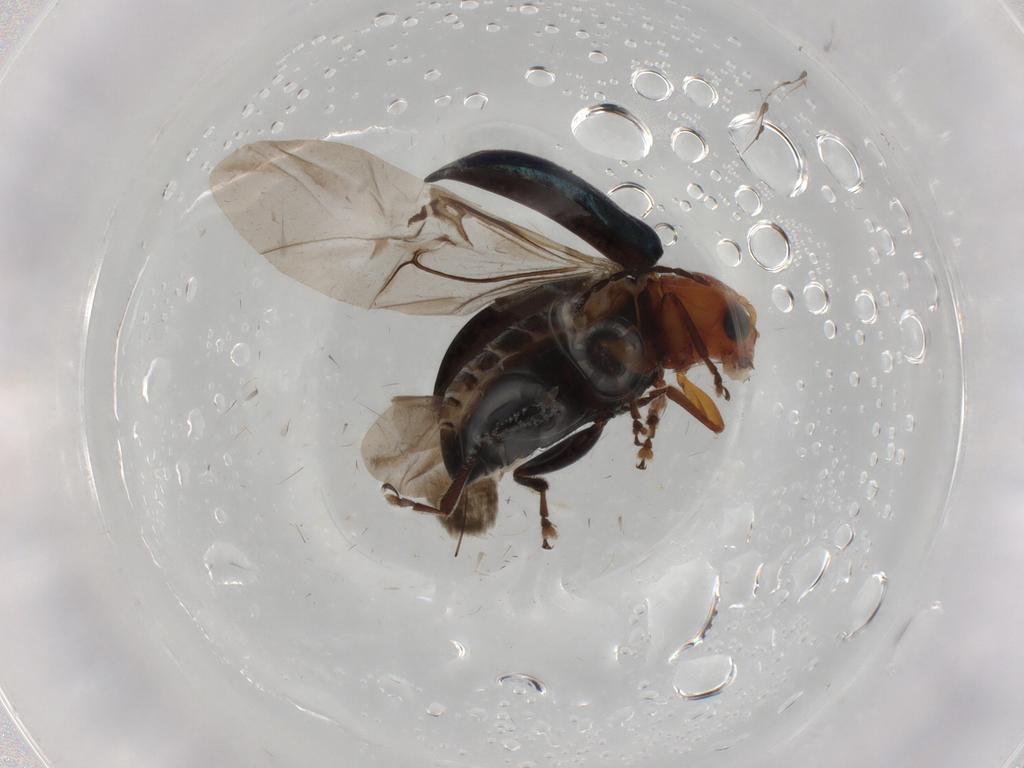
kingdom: Animalia
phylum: Arthropoda
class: Insecta
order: Coleoptera
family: Chrysomelidae
